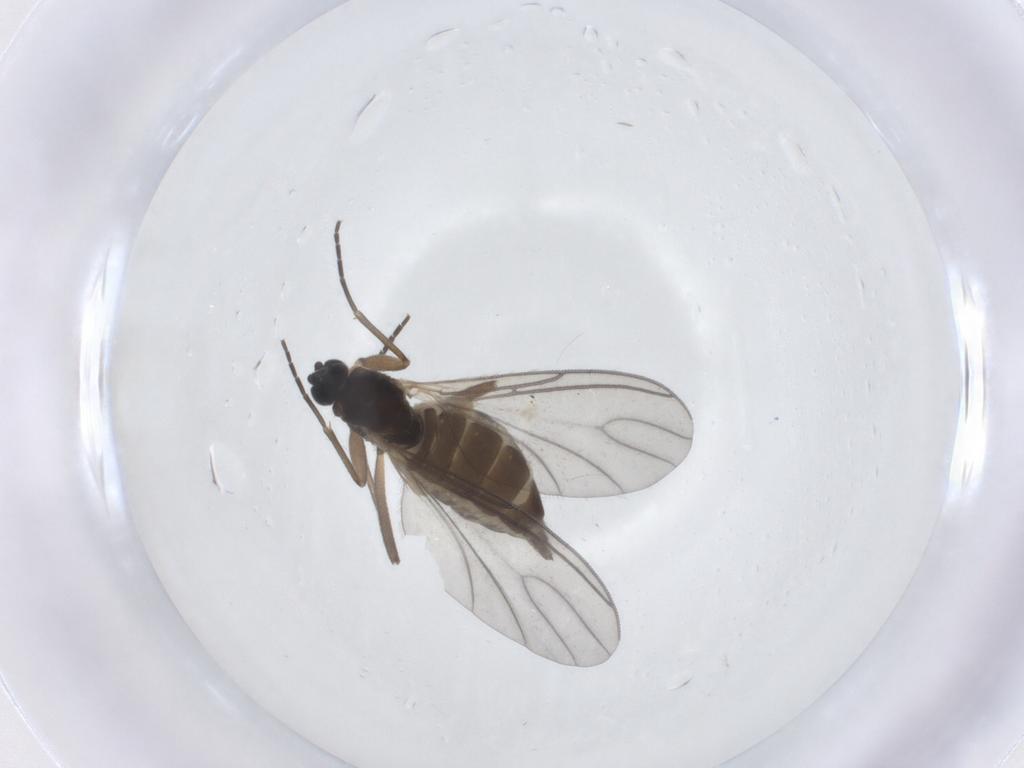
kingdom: Animalia
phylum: Arthropoda
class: Insecta
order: Diptera
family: Sciaridae
